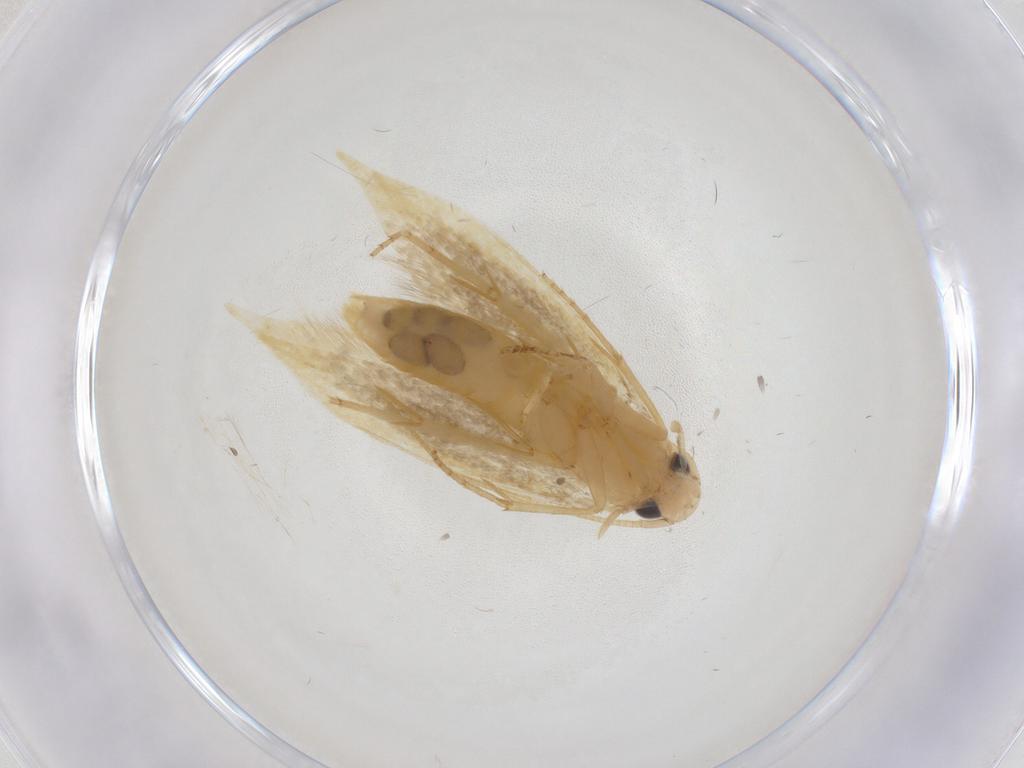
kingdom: Animalia
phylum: Arthropoda
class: Insecta
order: Lepidoptera
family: Tineidae
